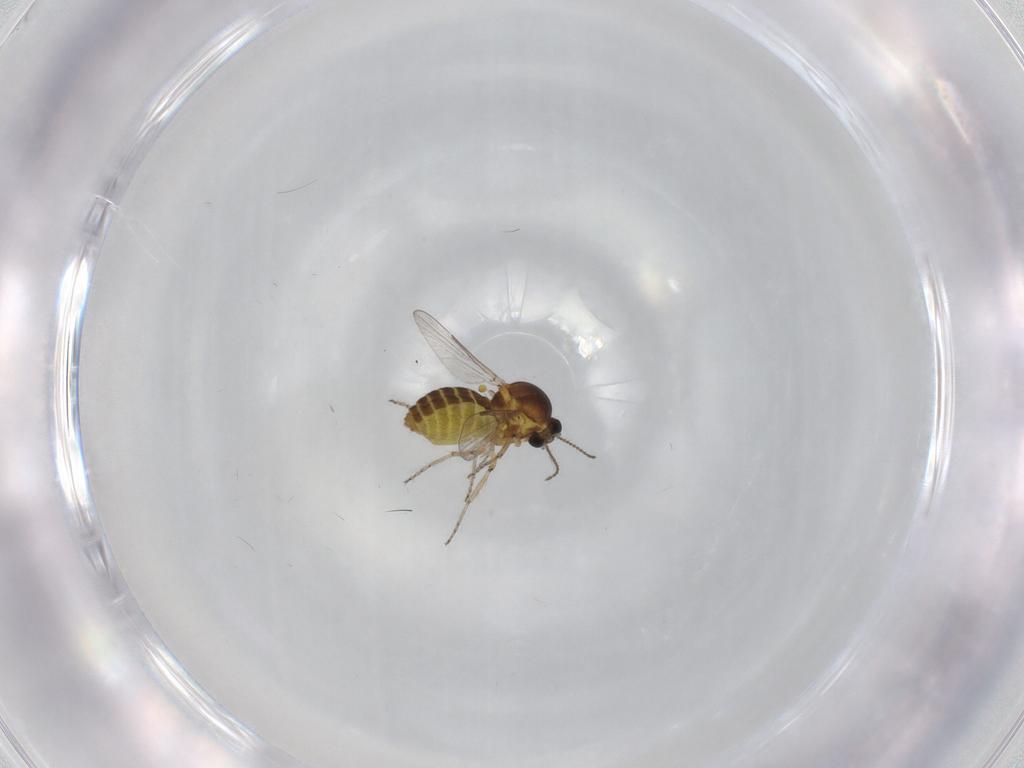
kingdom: Animalia
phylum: Arthropoda
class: Insecta
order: Diptera
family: Ceratopogonidae
